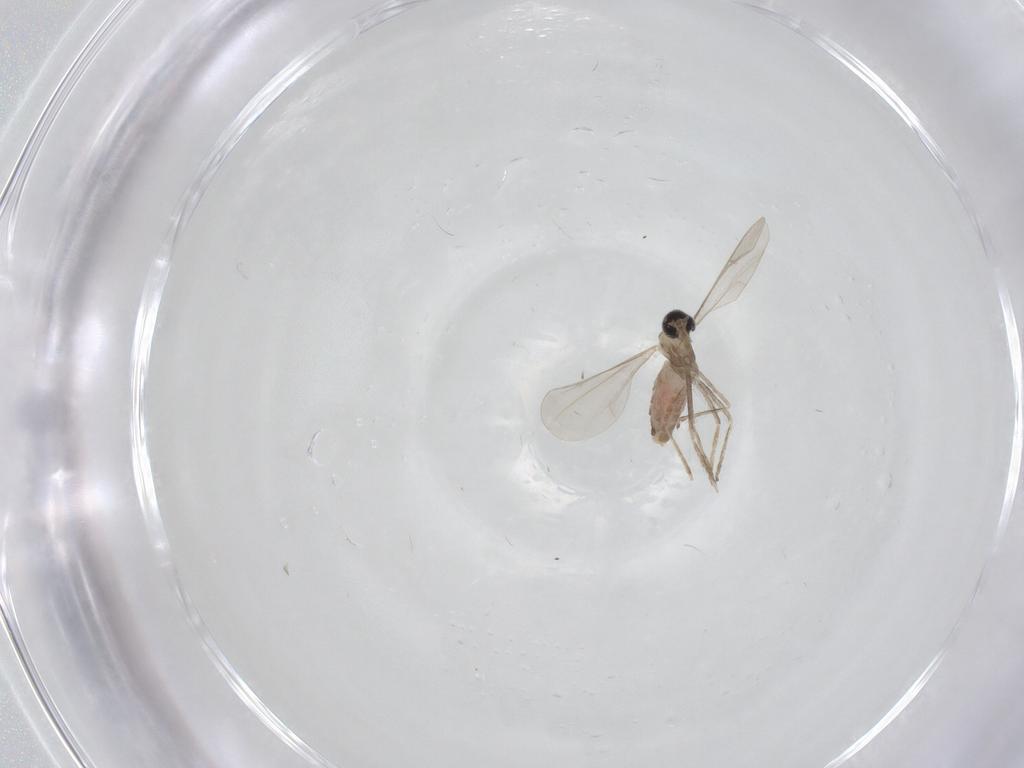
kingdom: Animalia
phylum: Arthropoda
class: Insecta
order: Diptera
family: Cecidomyiidae
